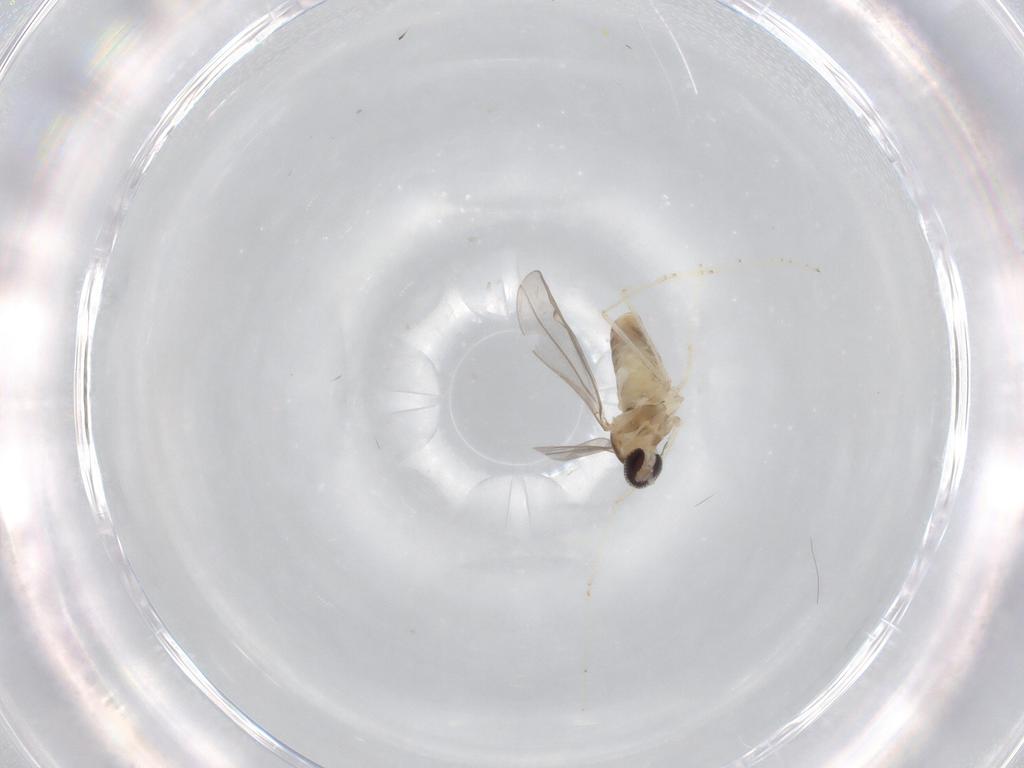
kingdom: Animalia
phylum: Arthropoda
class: Insecta
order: Diptera
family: Cecidomyiidae
